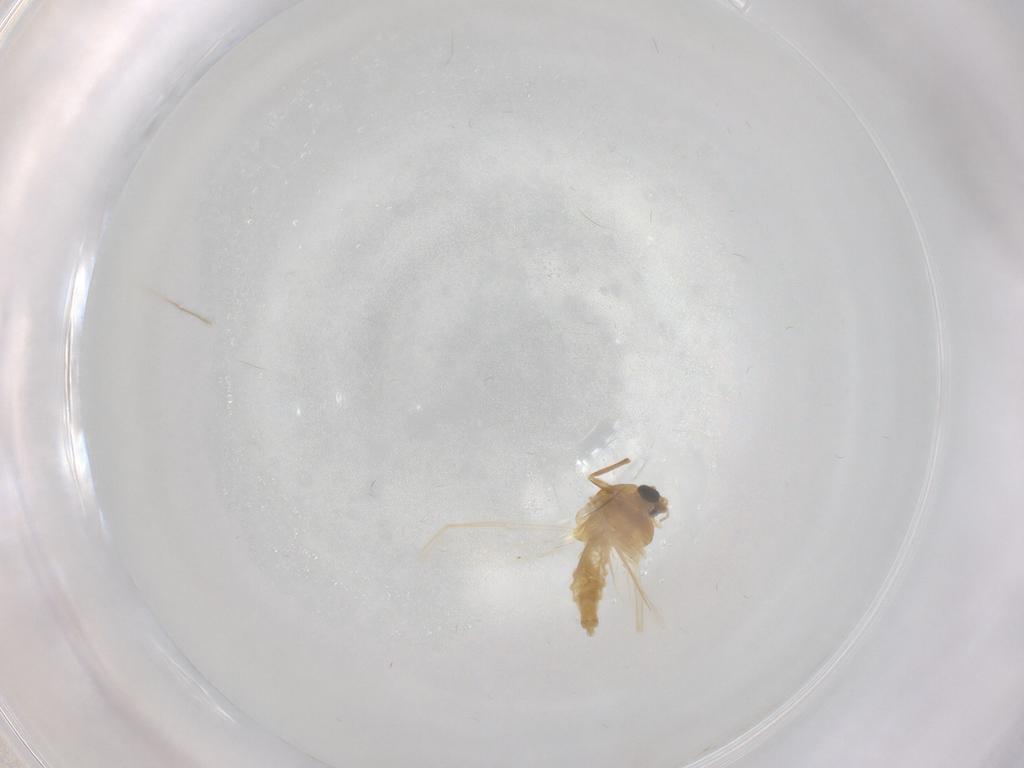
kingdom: Animalia
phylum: Arthropoda
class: Insecta
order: Diptera
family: Chironomidae
